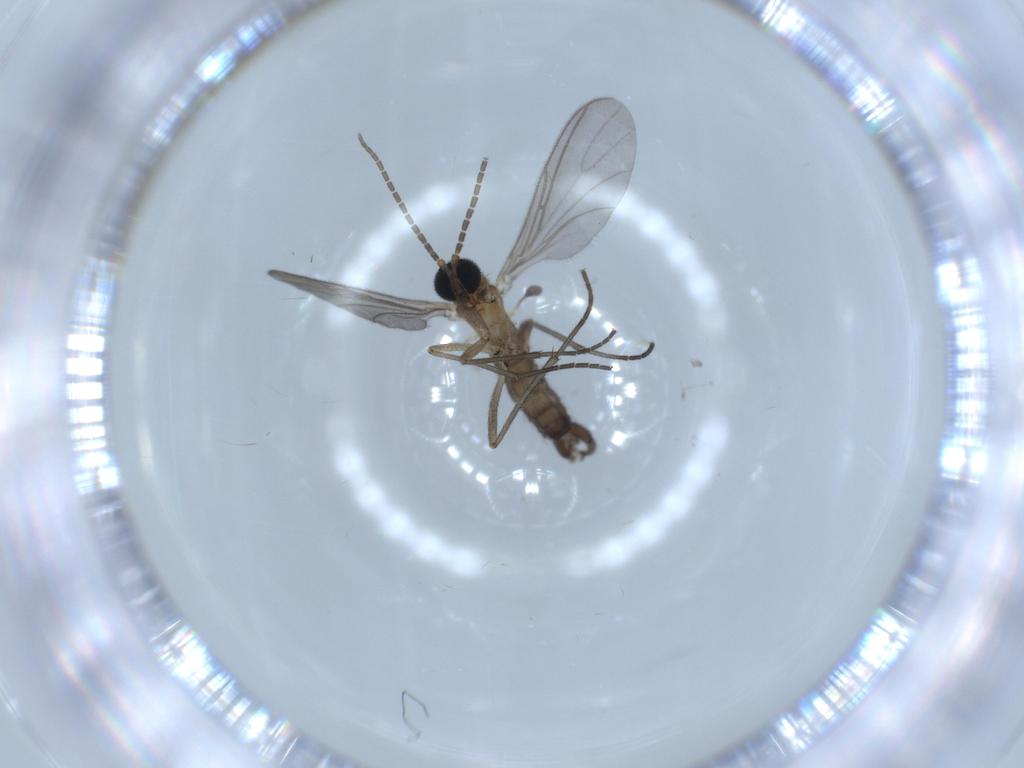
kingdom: Animalia
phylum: Arthropoda
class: Insecta
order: Diptera
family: Sciaridae
